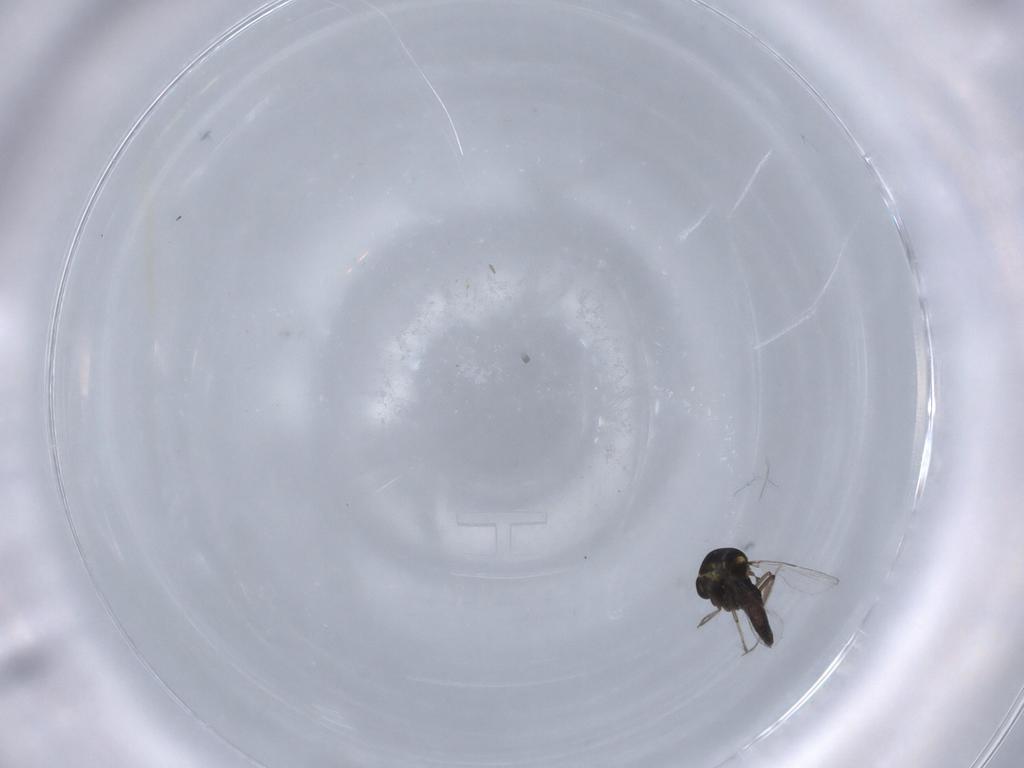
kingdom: Animalia
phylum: Arthropoda
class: Insecta
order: Diptera
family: Ceratopogonidae
